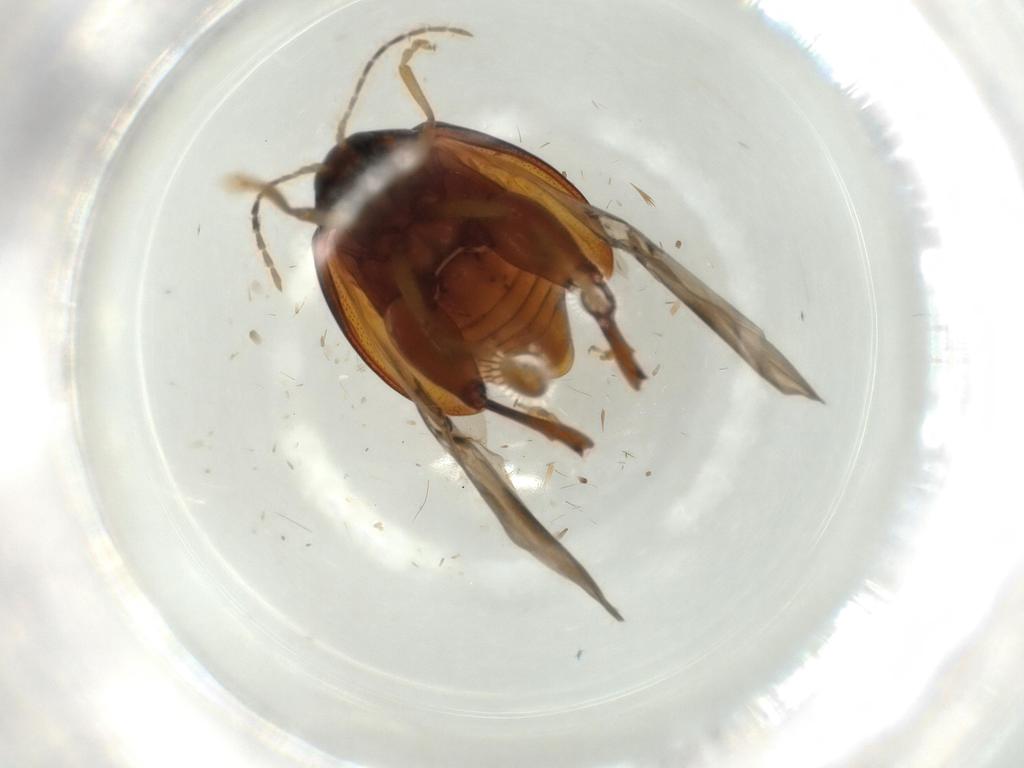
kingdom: Animalia
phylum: Arthropoda
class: Insecta
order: Coleoptera
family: Chrysomelidae
